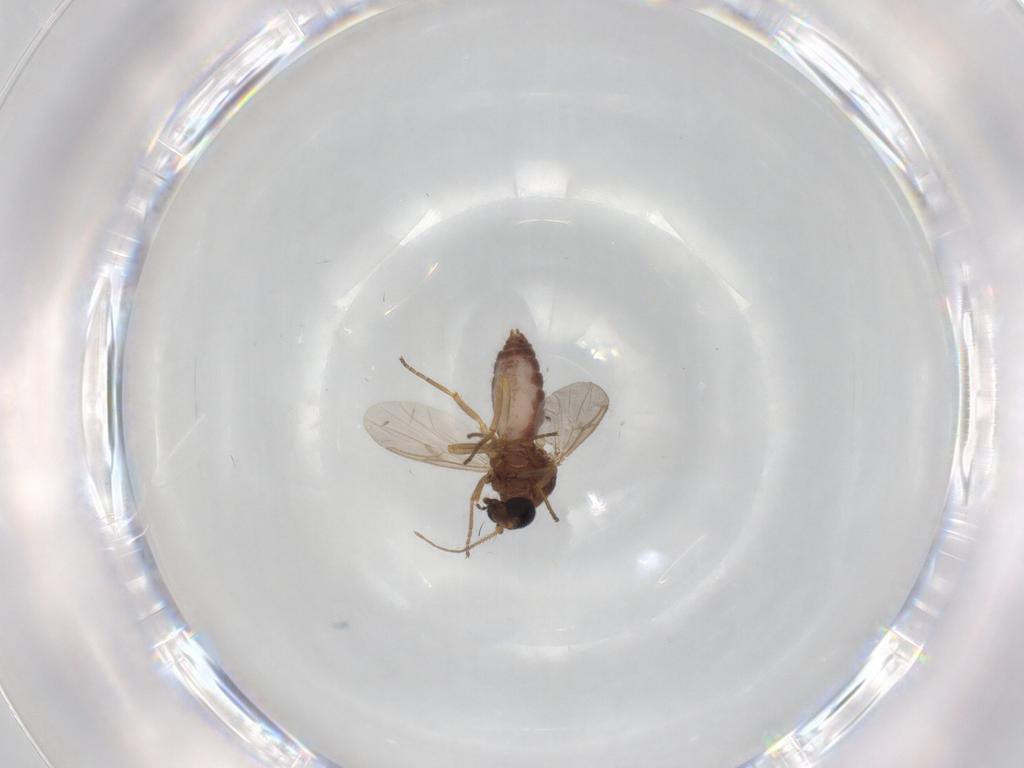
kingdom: Animalia
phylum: Arthropoda
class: Insecta
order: Diptera
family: Ceratopogonidae
